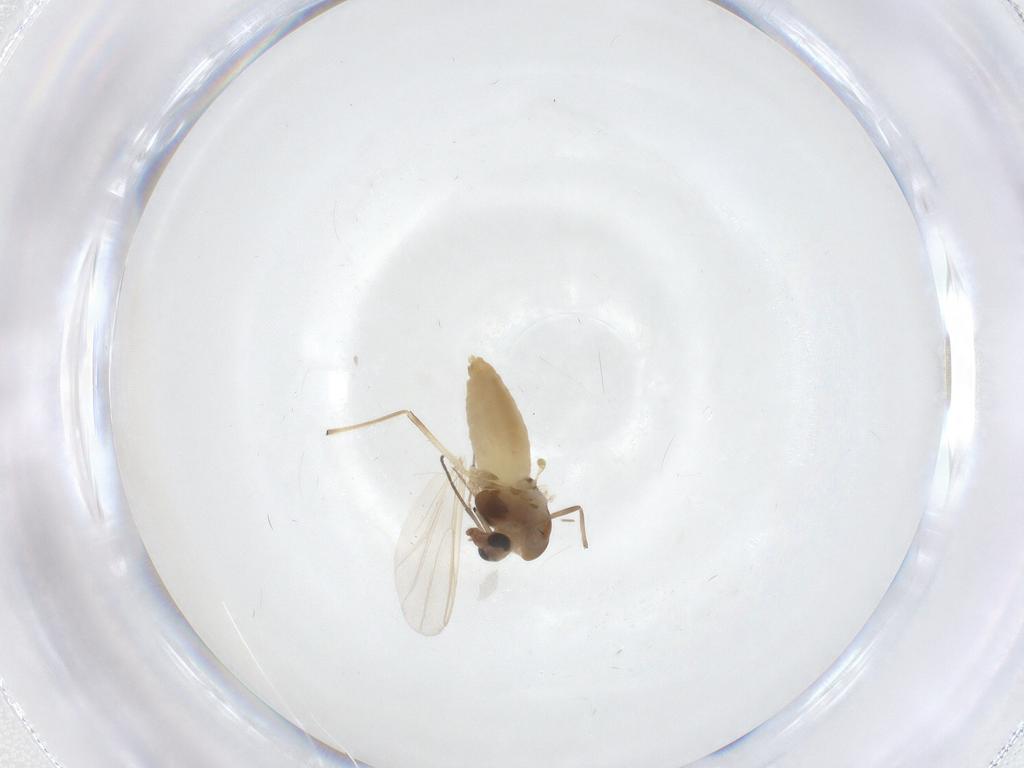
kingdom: Animalia
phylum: Arthropoda
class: Insecta
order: Diptera
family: Chironomidae
